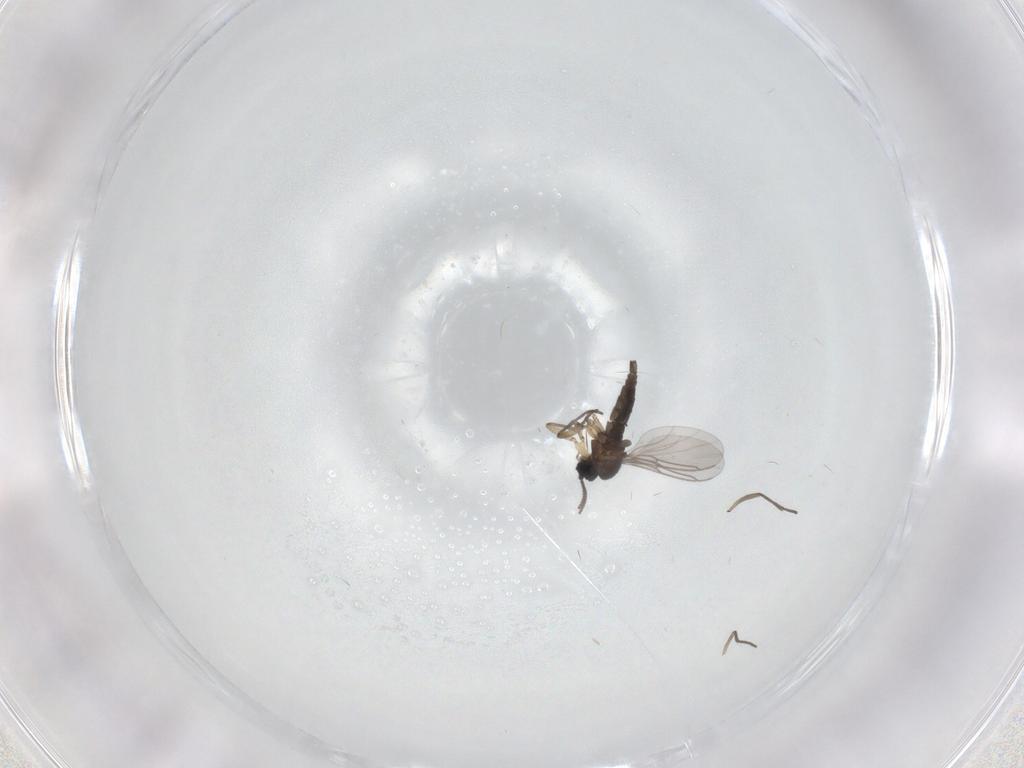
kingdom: Animalia
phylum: Arthropoda
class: Insecta
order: Diptera
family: Sciaridae
